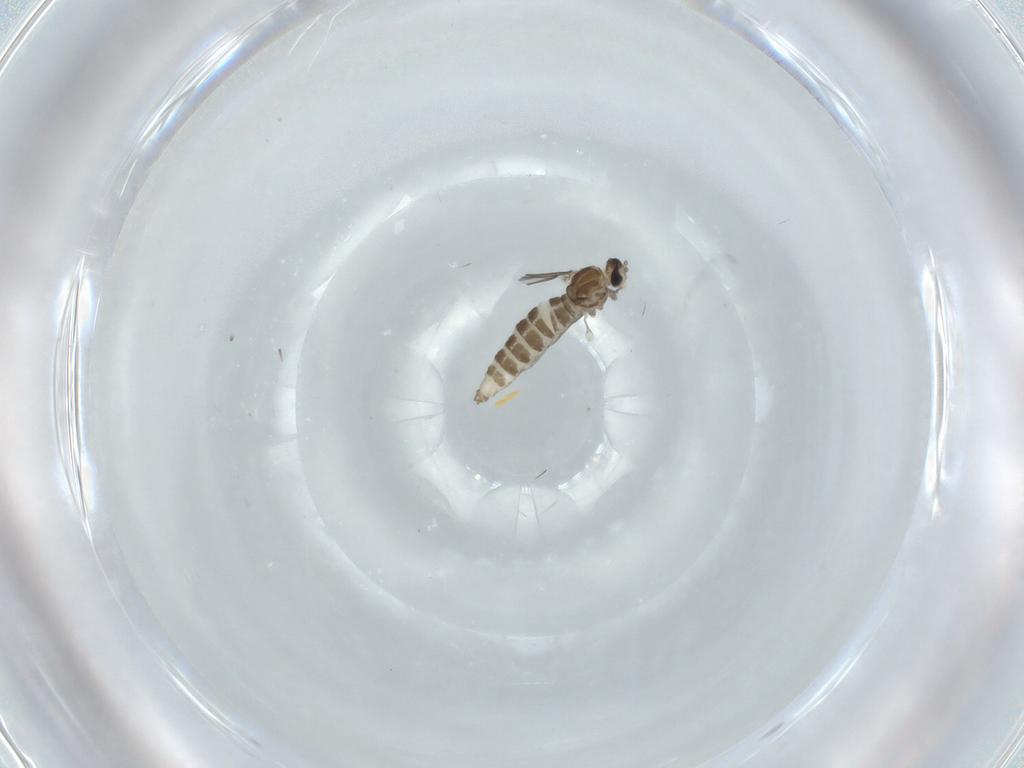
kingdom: Animalia
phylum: Arthropoda
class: Insecta
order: Diptera
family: Cecidomyiidae
